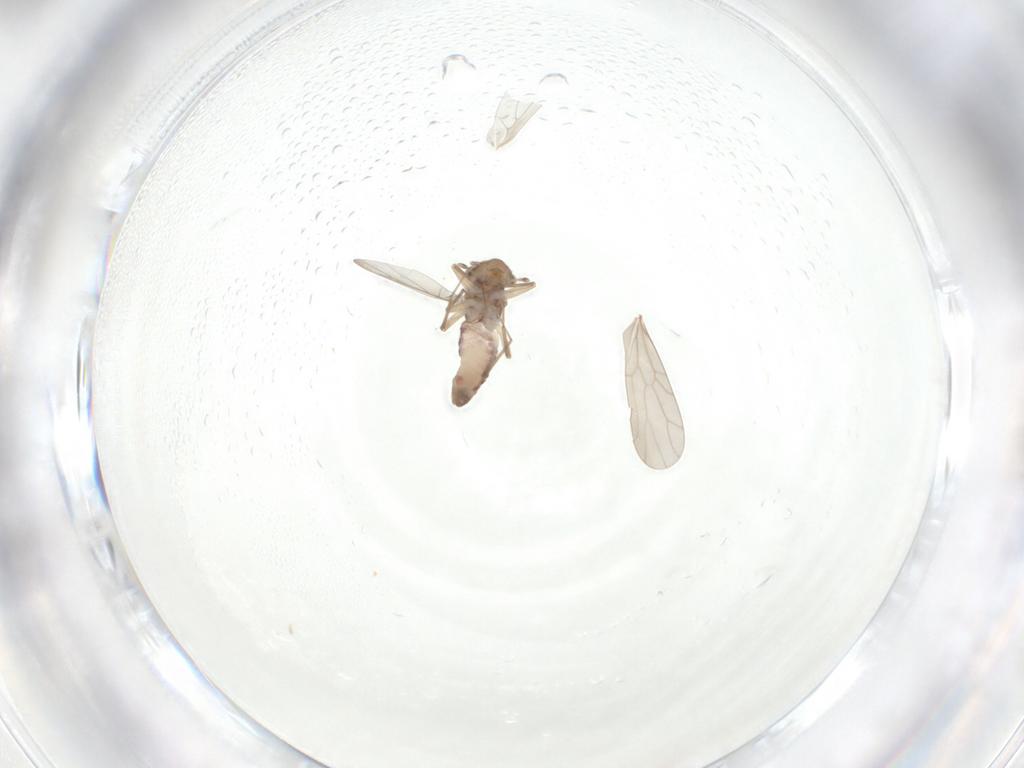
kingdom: Animalia
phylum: Arthropoda
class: Insecta
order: Psocodea
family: Lepidopsocidae
